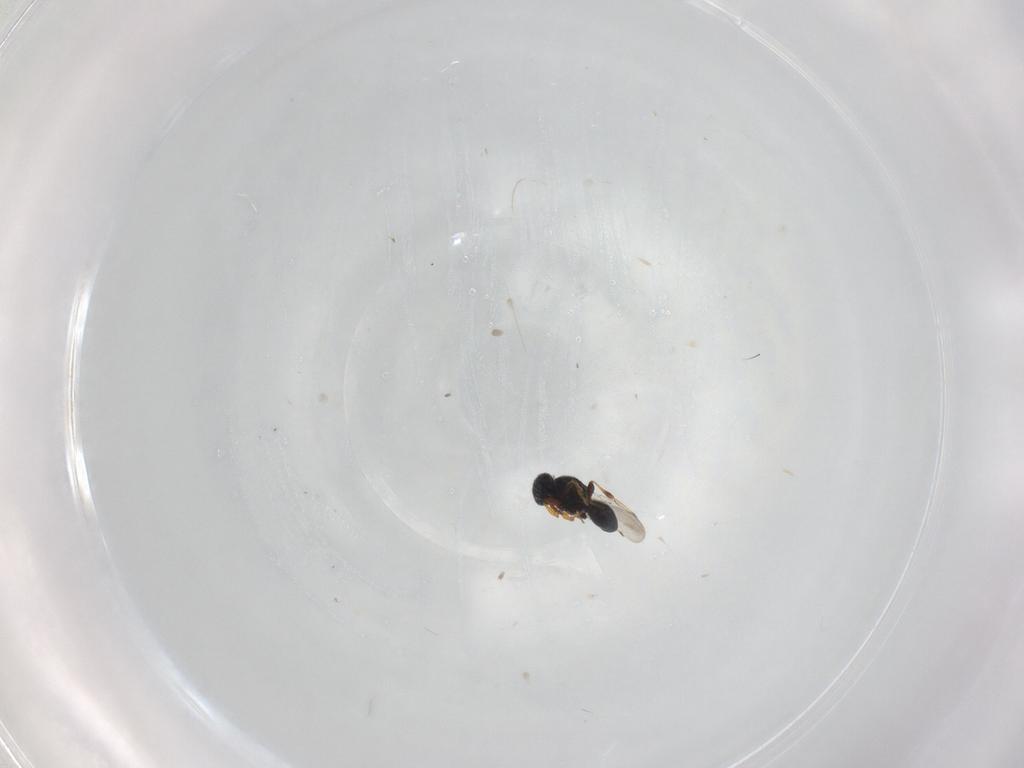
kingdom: Animalia
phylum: Arthropoda
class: Insecta
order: Hymenoptera
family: Platygastridae
